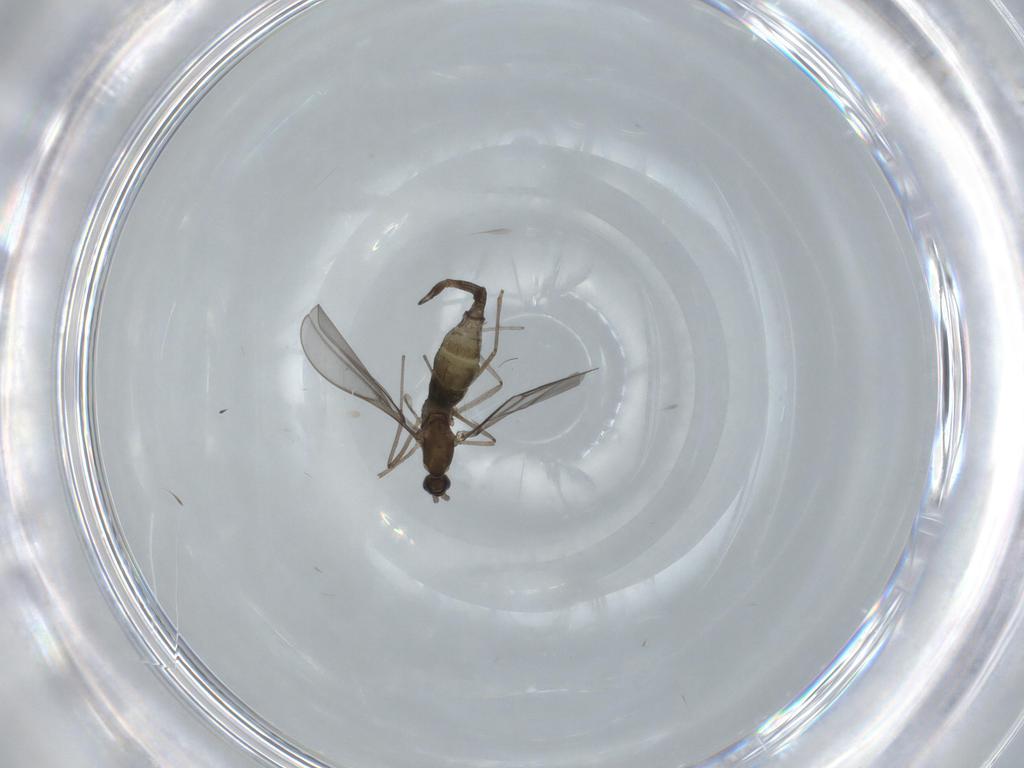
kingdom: Animalia
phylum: Arthropoda
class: Insecta
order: Diptera
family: Cecidomyiidae
